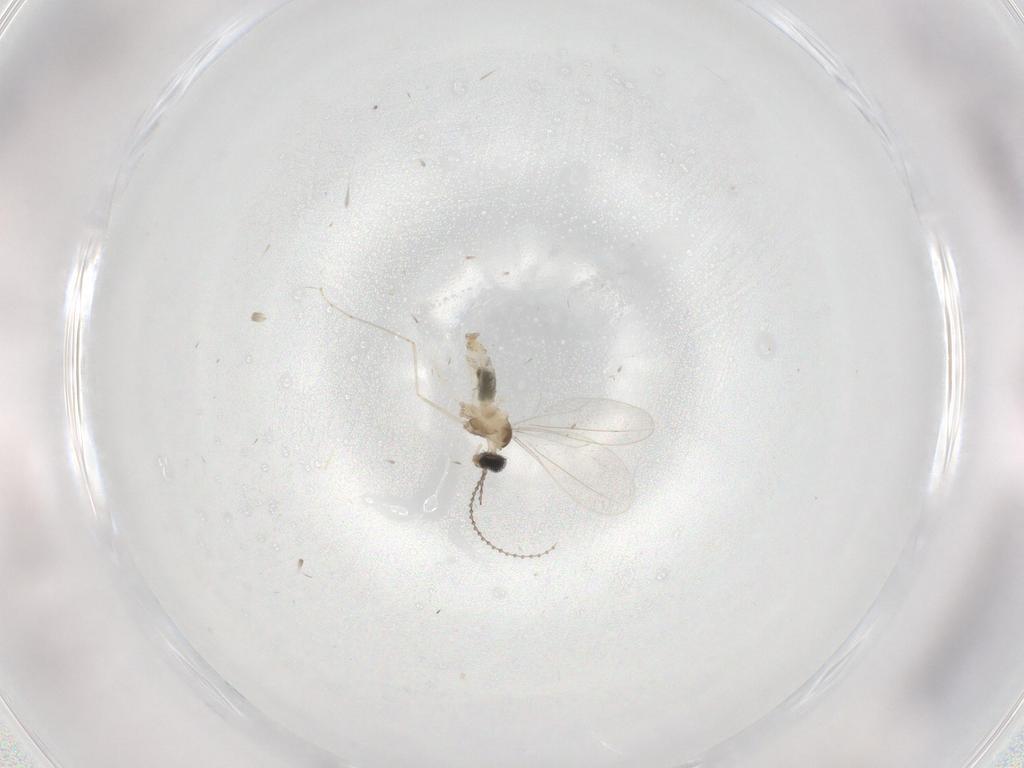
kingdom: Animalia
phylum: Arthropoda
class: Insecta
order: Diptera
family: Cecidomyiidae
